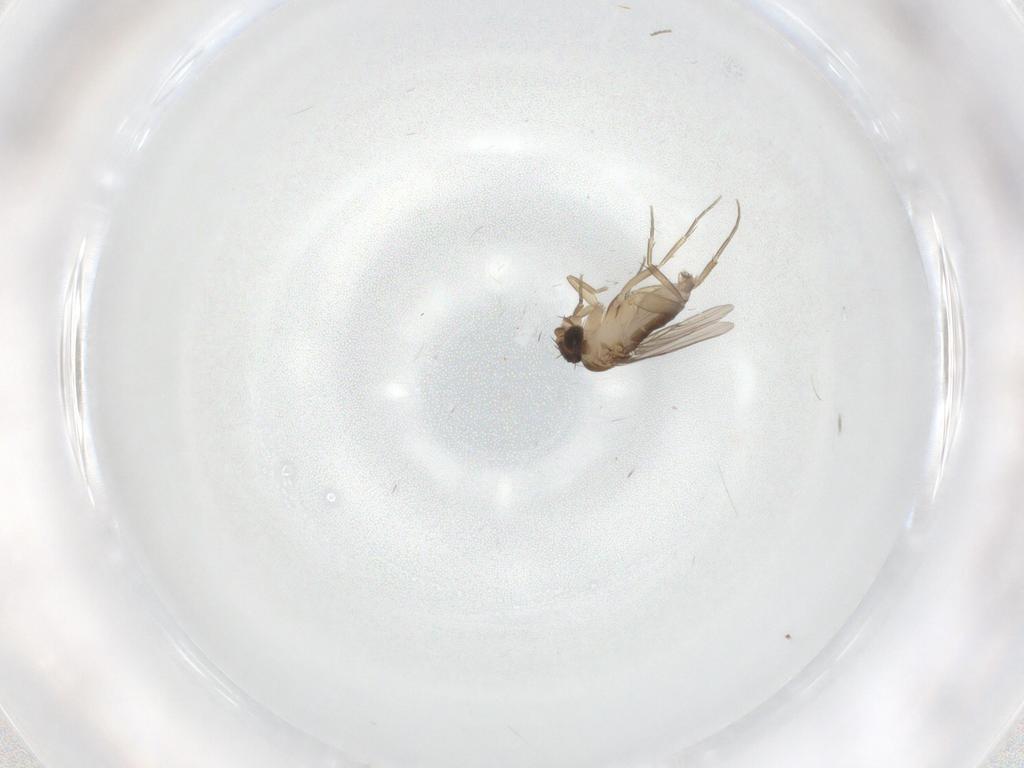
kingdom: Animalia
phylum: Arthropoda
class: Insecta
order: Diptera
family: Phoridae
